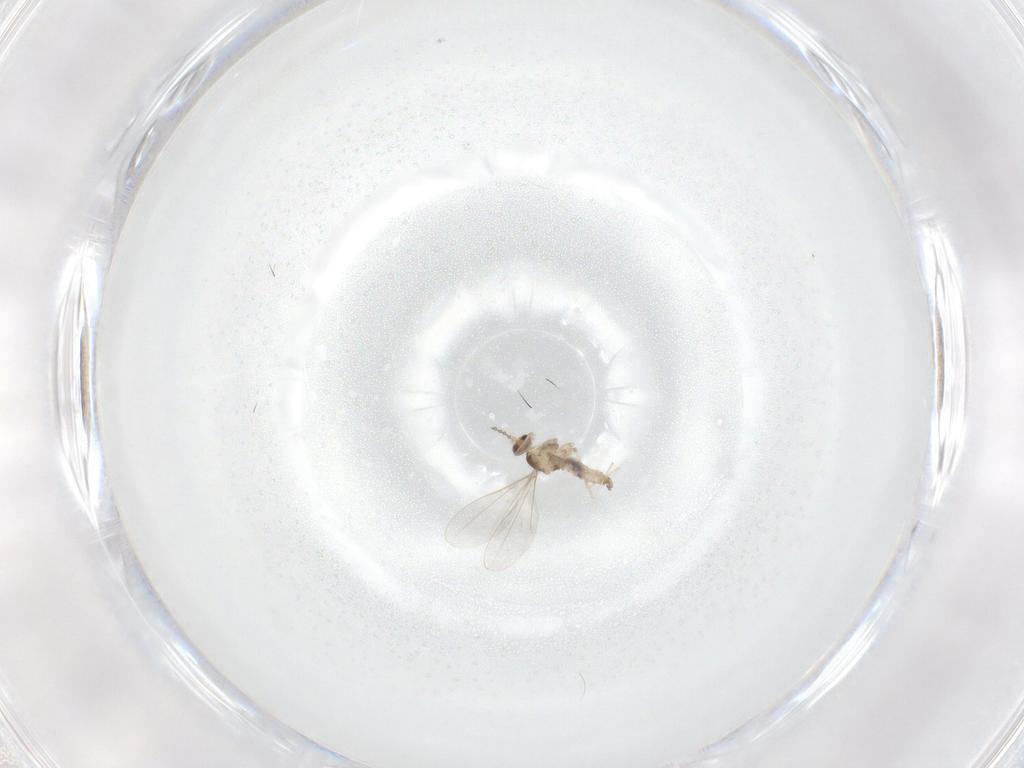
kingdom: Animalia
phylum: Arthropoda
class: Insecta
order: Diptera
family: Cecidomyiidae
